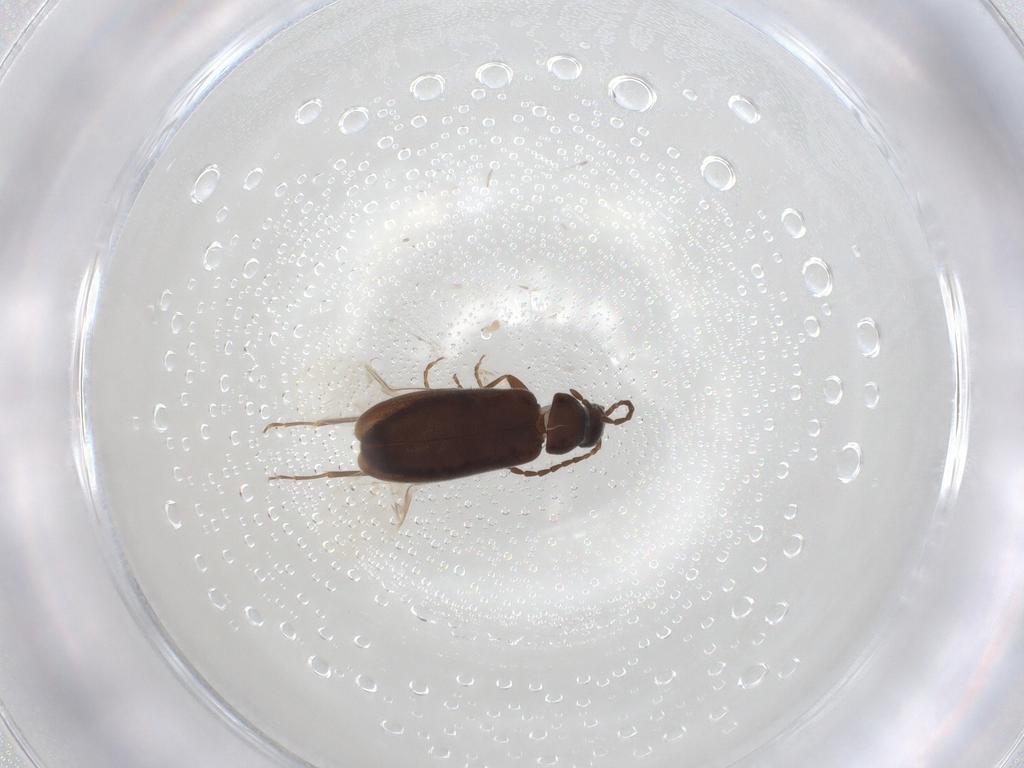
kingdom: Animalia
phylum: Arthropoda
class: Insecta
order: Coleoptera
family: Scraptiidae
